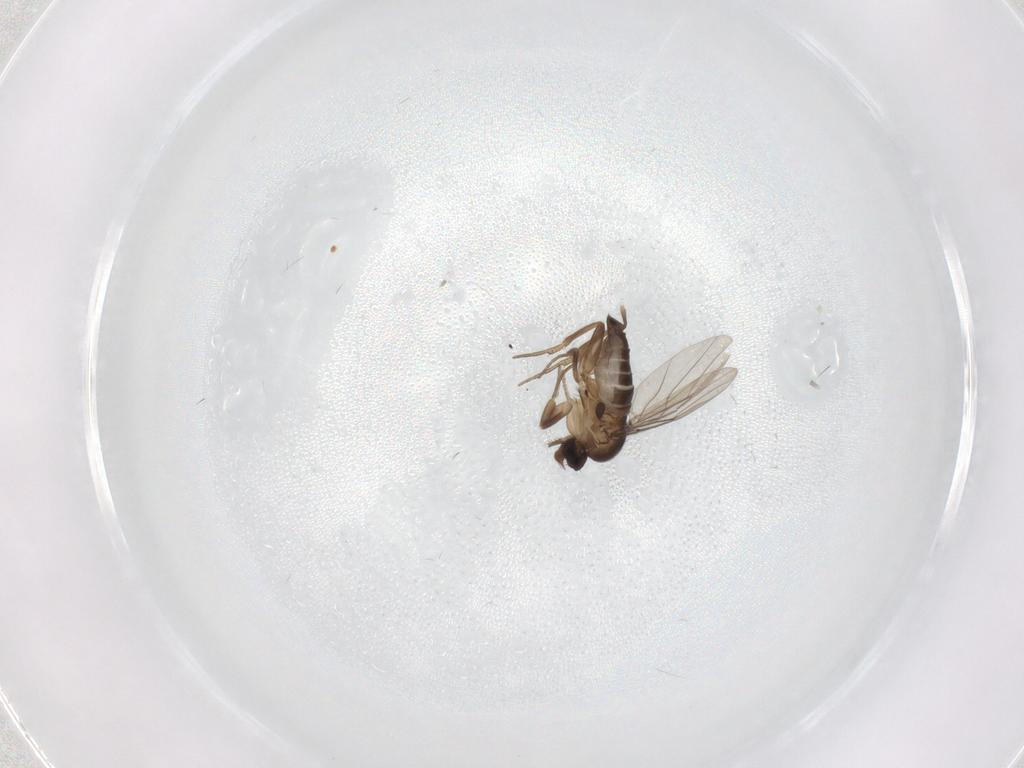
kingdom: Animalia
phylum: Arthropoda
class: Insecta
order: Diptera
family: Phoridae
